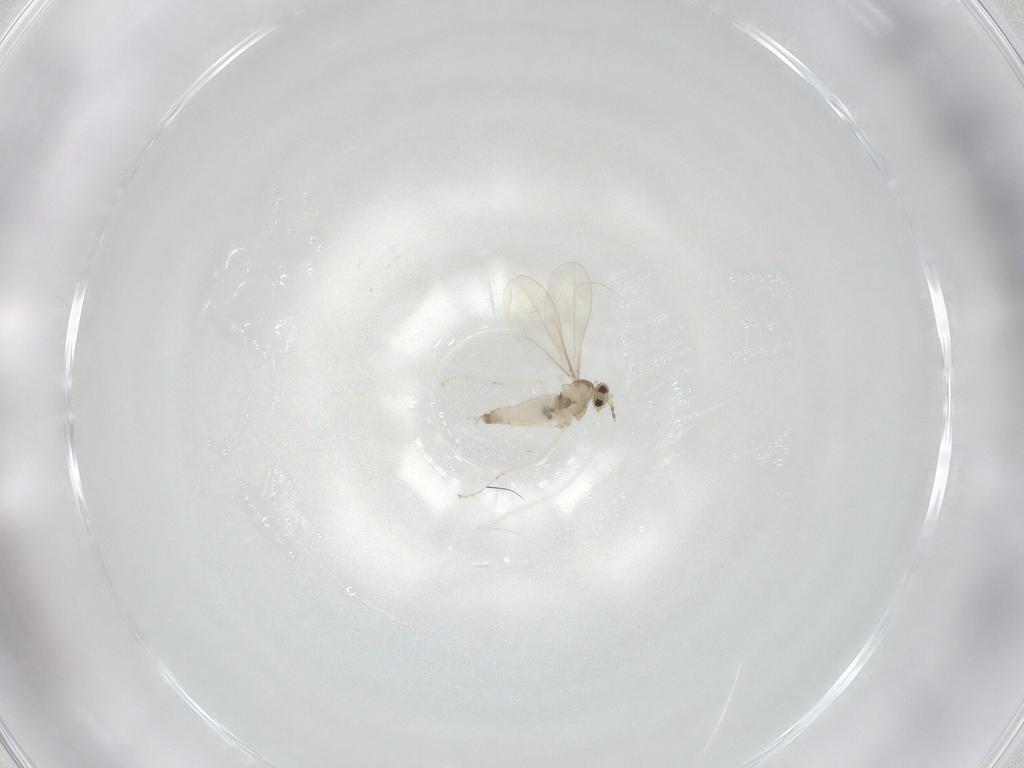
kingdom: Animalia
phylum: Arthropoda
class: Insecta
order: Diptera
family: Cecidomyiidae
